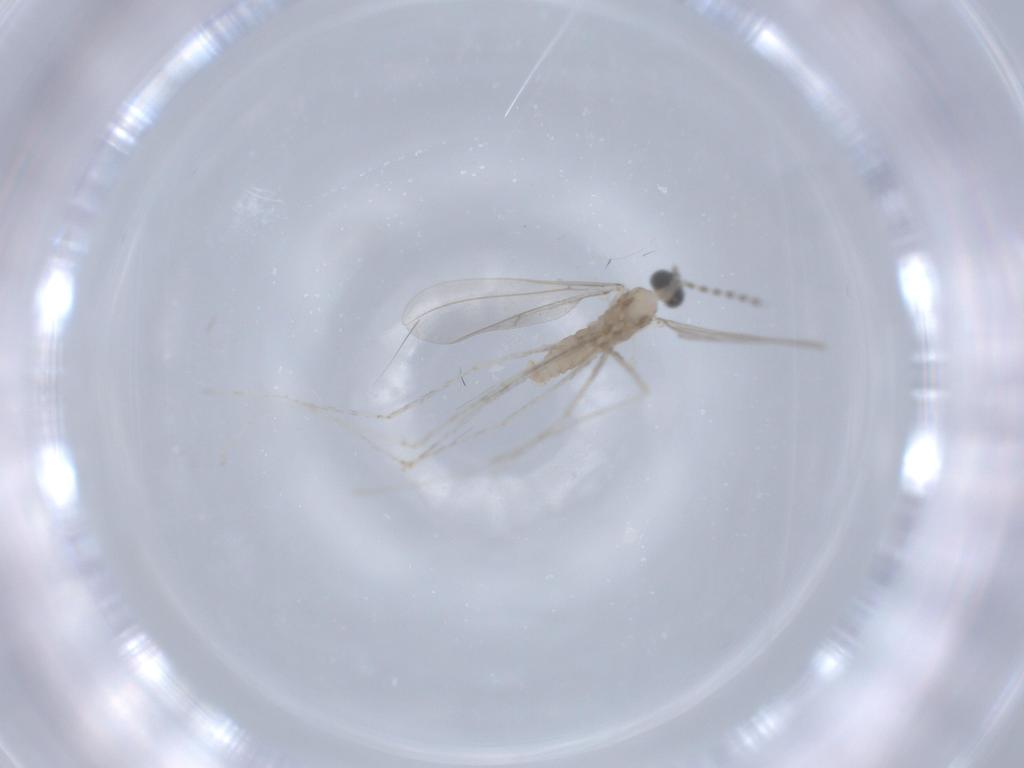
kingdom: Animalia
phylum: Arthropoda
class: Insecta
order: Diptera
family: Cecidomyiidae
